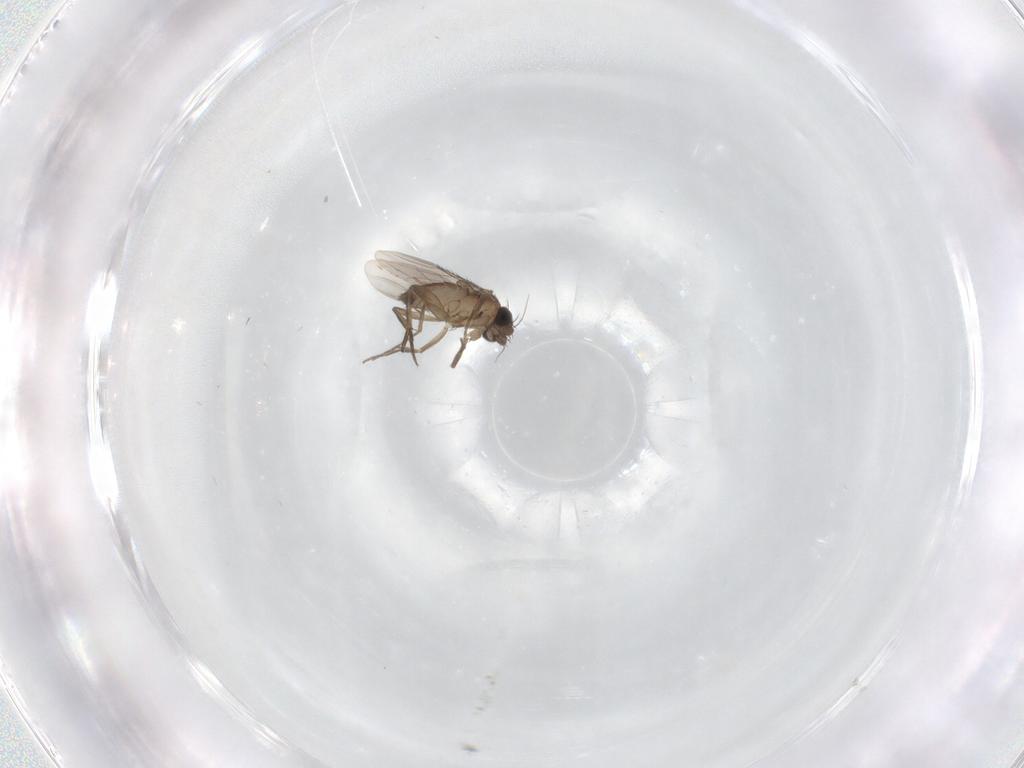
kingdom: Animalia
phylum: Arthropoda
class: Insecta
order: Diptera
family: Phoridae
